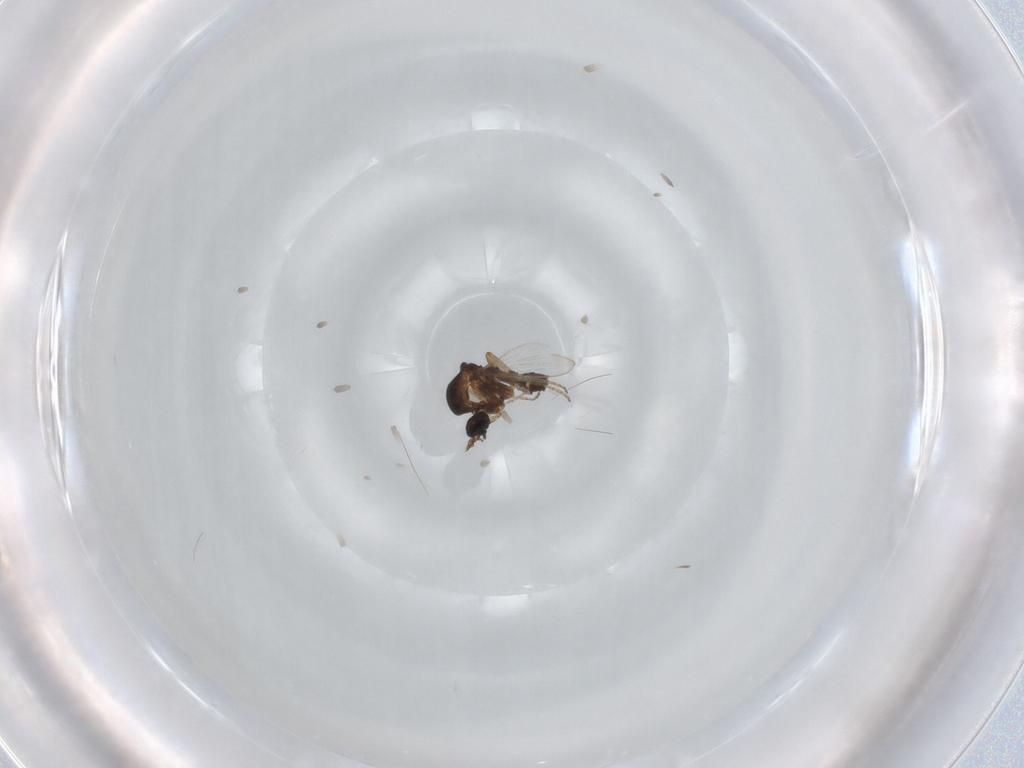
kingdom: Animalia
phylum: Arthropoda
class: Insecta
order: Diptera
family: Ceratopogonidae
